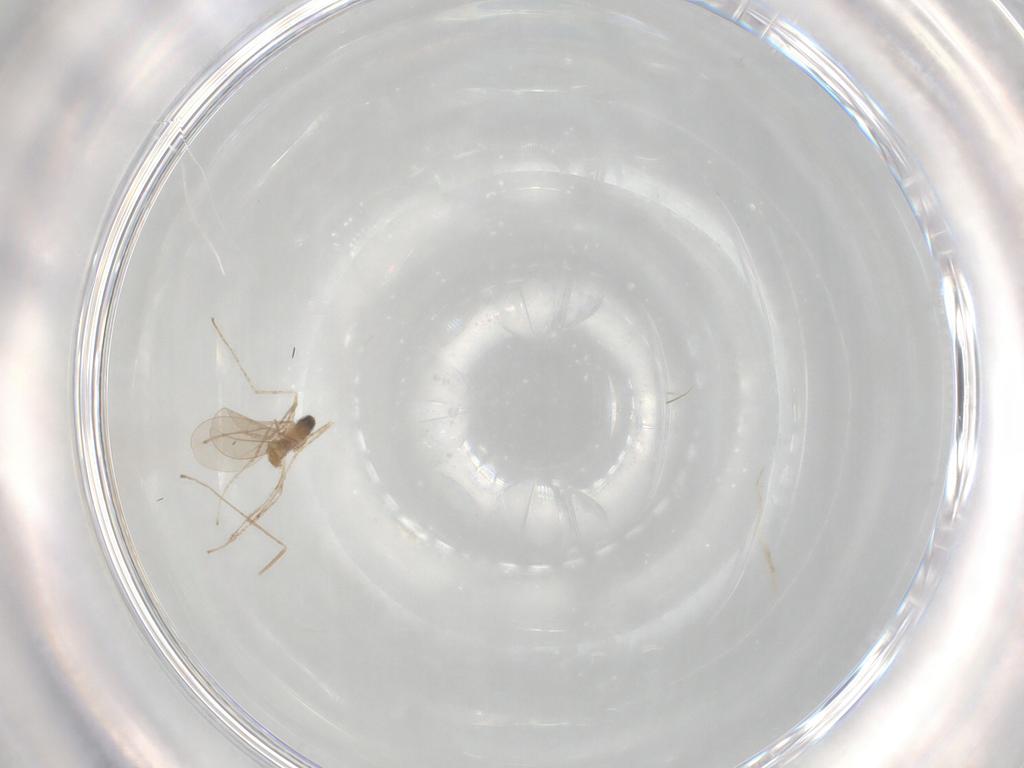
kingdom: Animalia
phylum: Arthropoda
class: Insecta
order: Diptera
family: Cecidomyiidae
